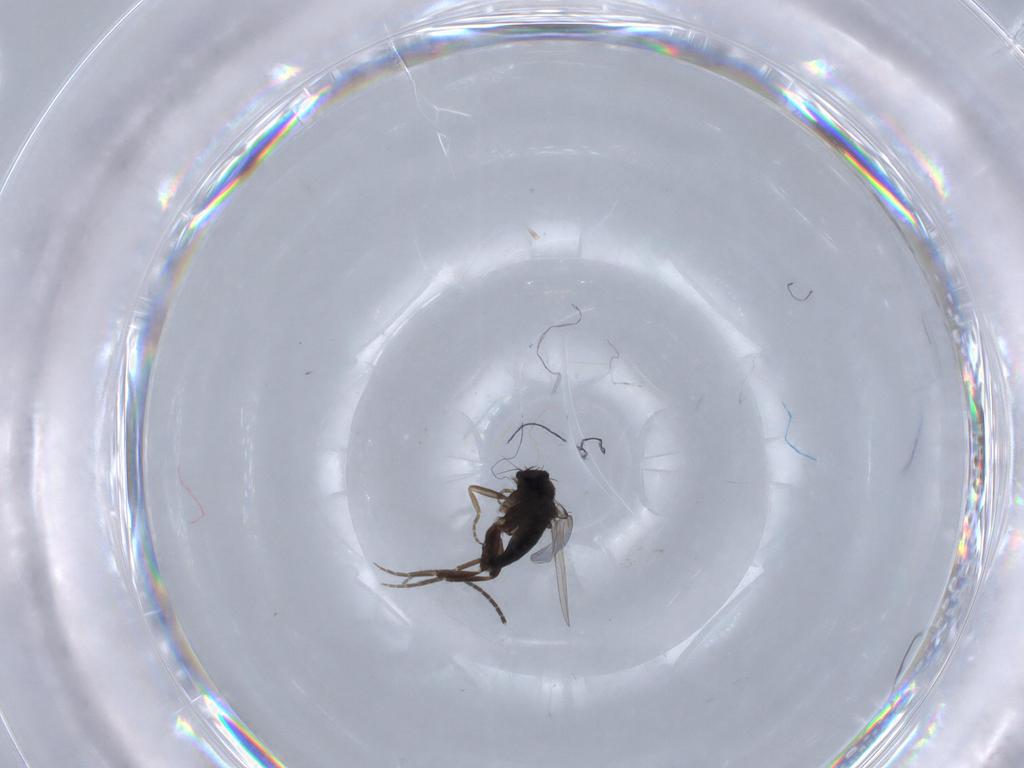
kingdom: Animalia
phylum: Arthropoda
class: Insecta
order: Diptera
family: Phoridae
